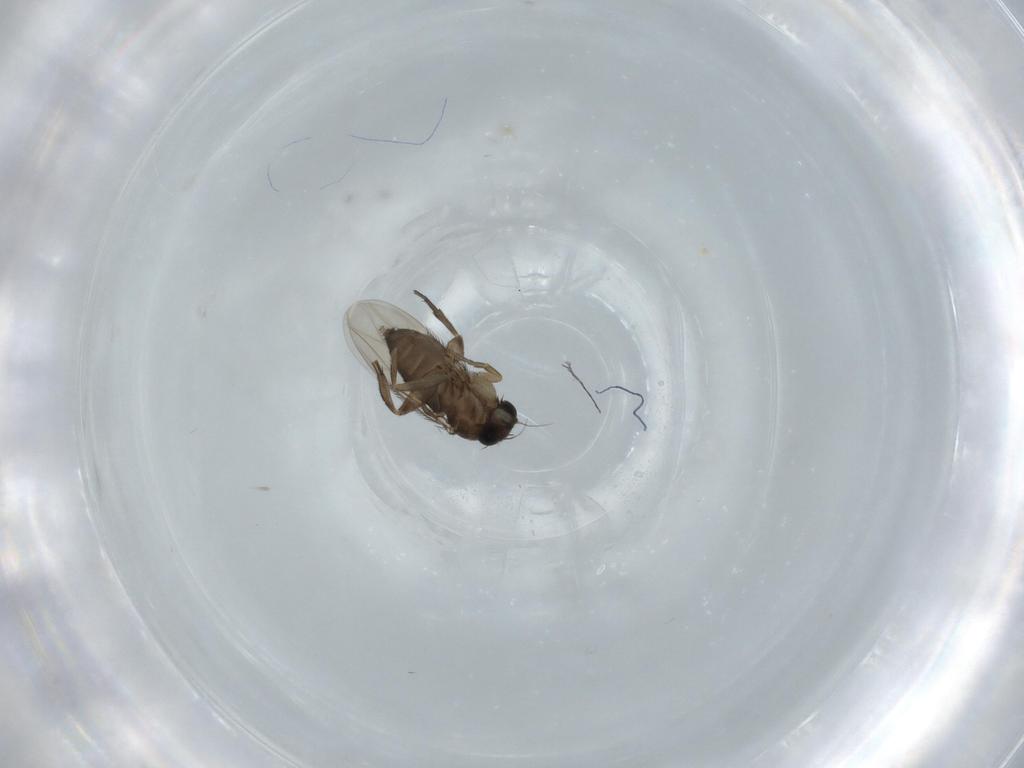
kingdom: Animalia
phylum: Arthropoda
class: Insecta
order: Diptera
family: Phoridae
